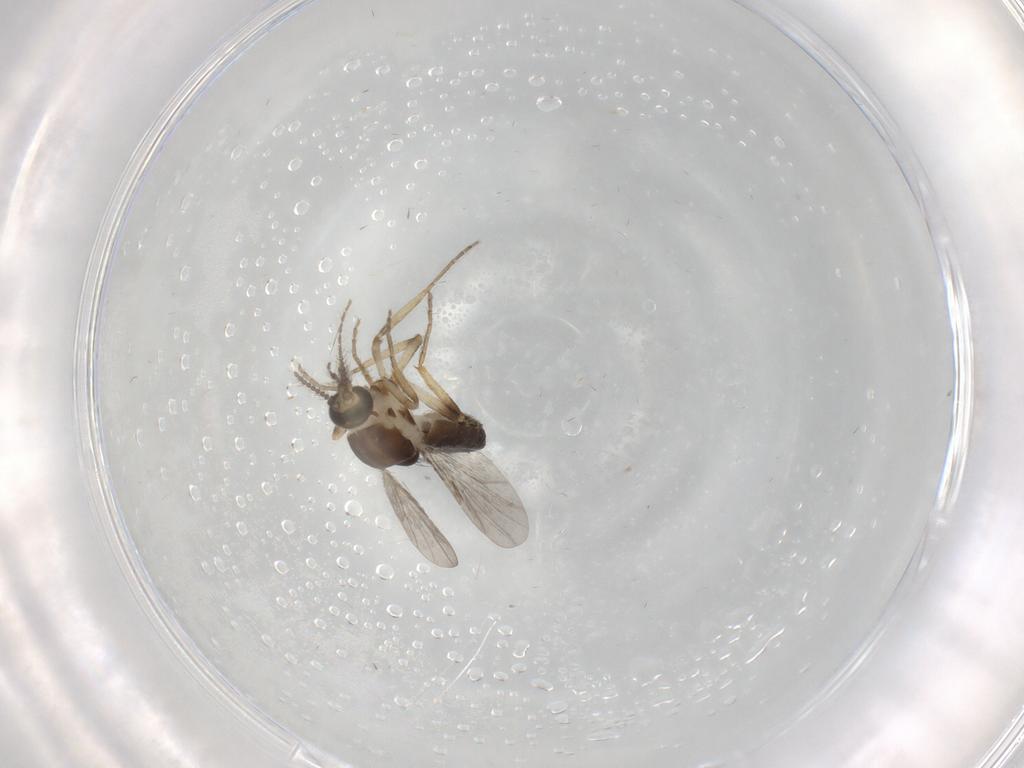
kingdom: Animalia
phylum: Arthropoda
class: Insecta
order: Diptera
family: Ceratopogonidae
